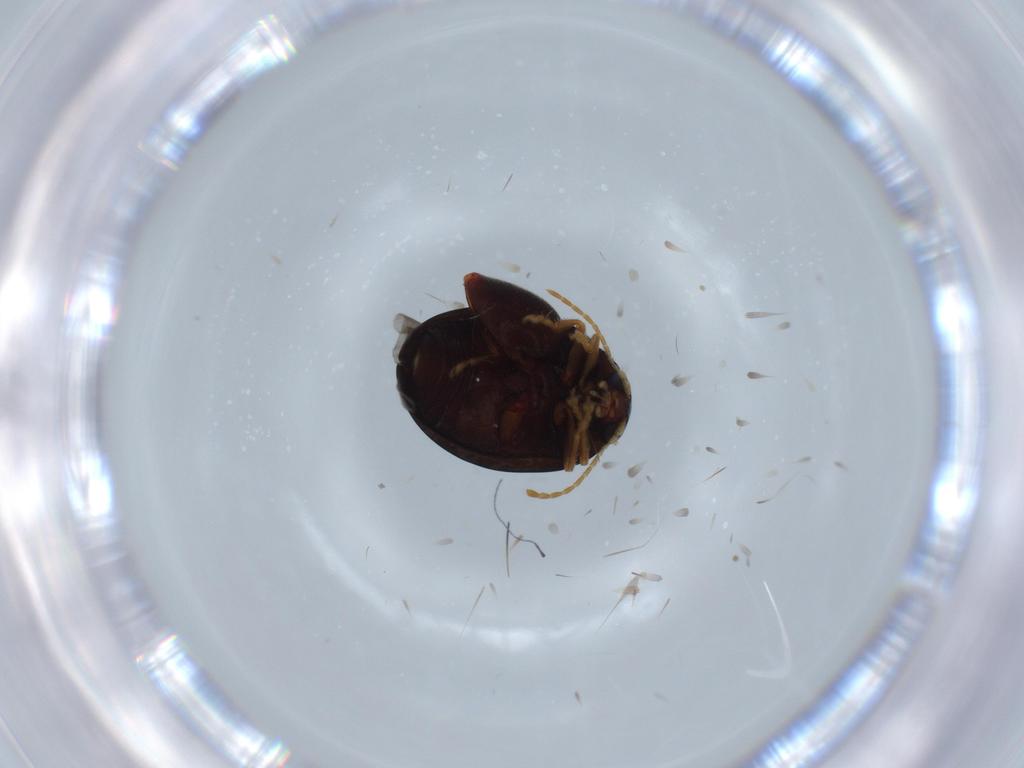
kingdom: Animalia
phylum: Arthropoda
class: Insecta
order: Coleoptera
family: Chrysomelidae
